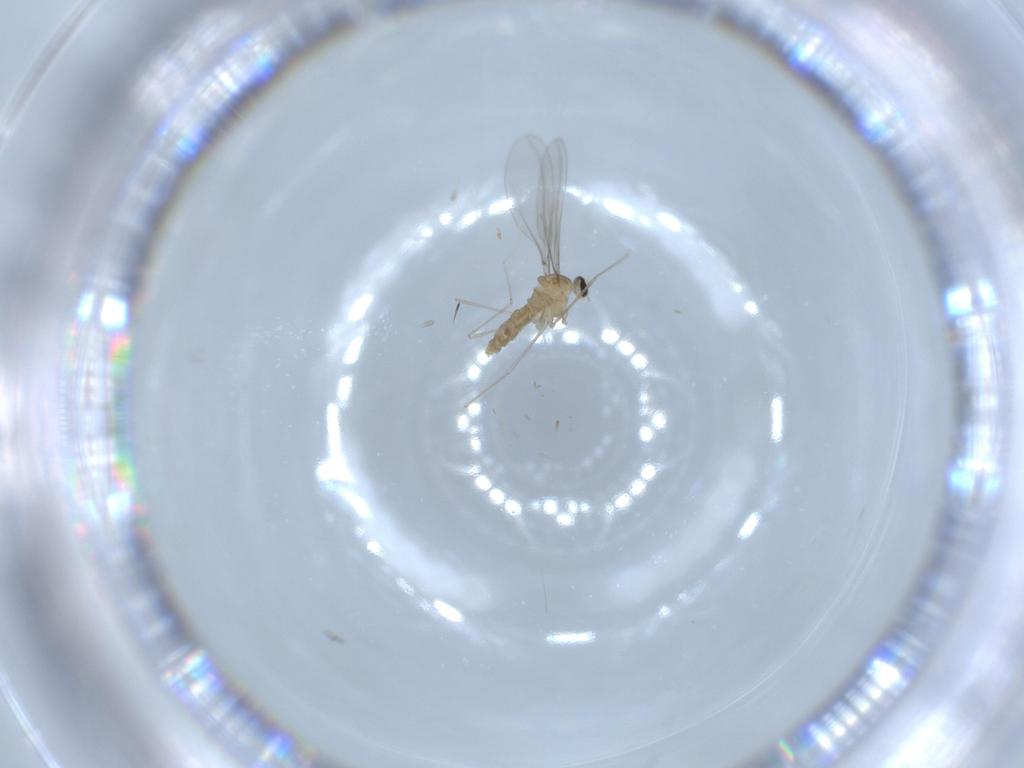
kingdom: Animalia
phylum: Arthropoda
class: Insecta
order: Diptera
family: Cecidomyiidae
